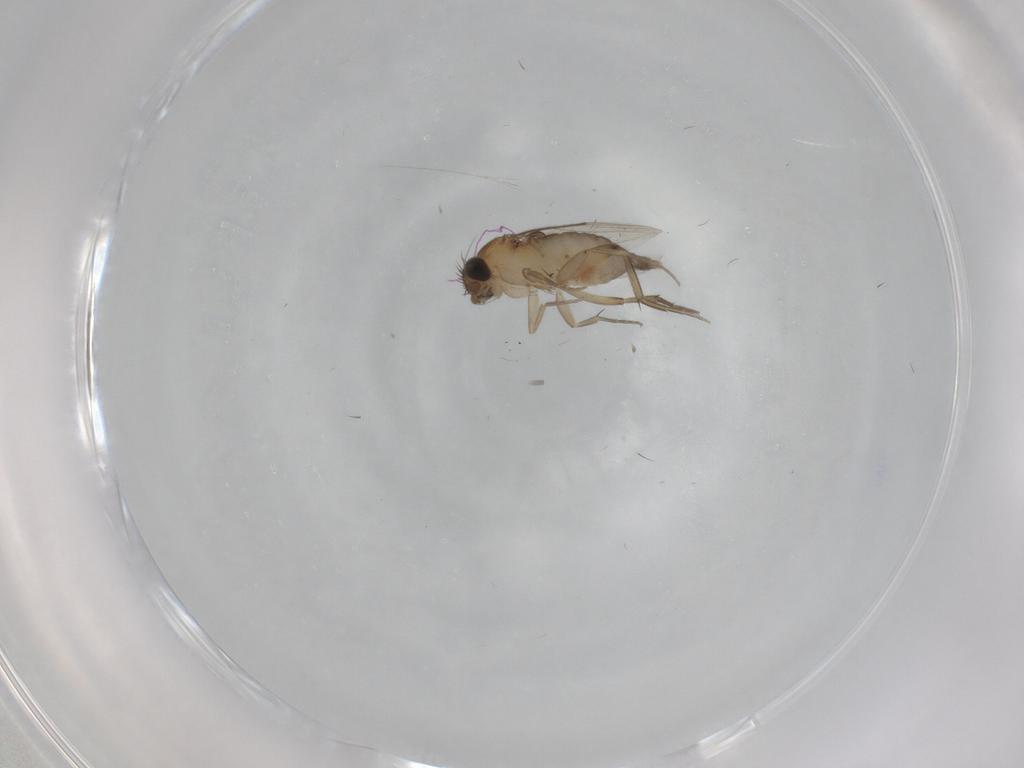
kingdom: Animalia
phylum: Arthropoda
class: Insecta
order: Diptera
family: Phoridae
